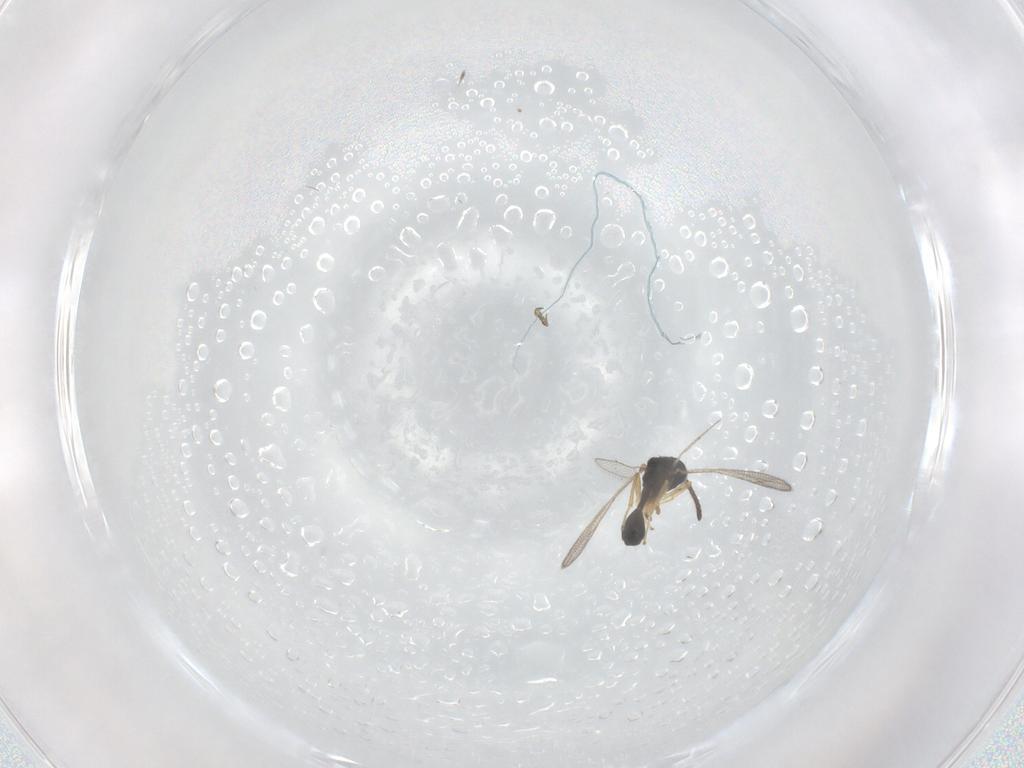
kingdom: Animalia
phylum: Arthropoda
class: Insecta
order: Hymenoptera
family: Diparidae
